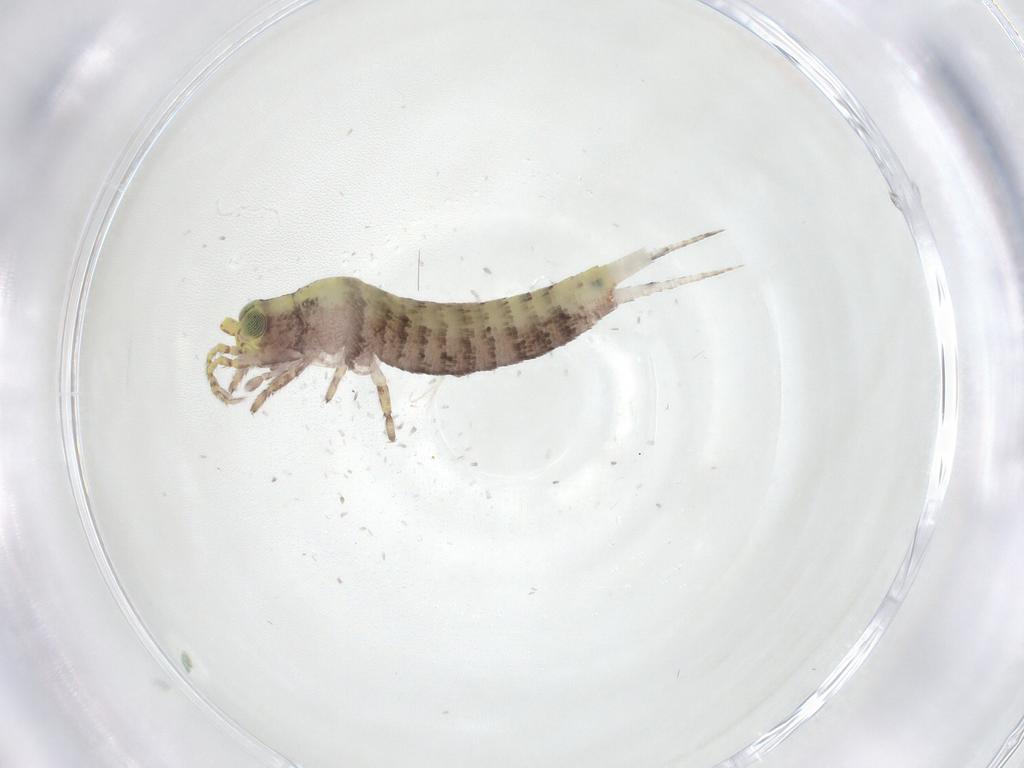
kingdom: Animalia
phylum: Arthropoda
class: Insecta
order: Archaeognatha
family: Machilidae
